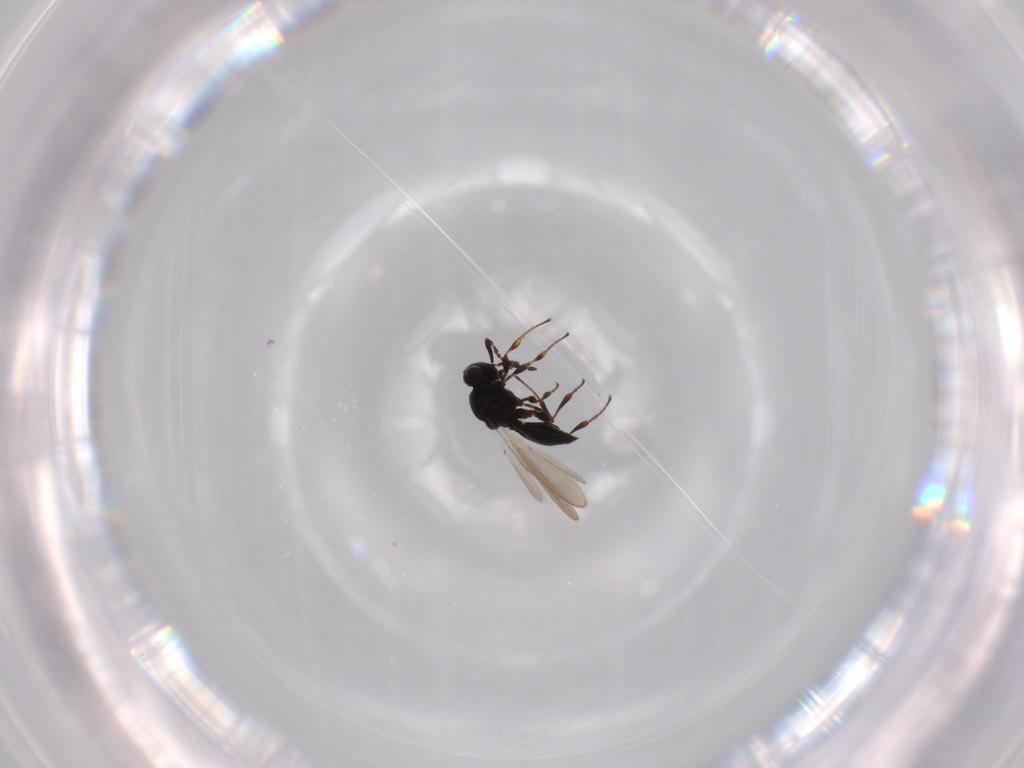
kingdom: Animalia
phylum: Arthropoda
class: Insecta
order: Hymenoptera
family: Platygastridae
